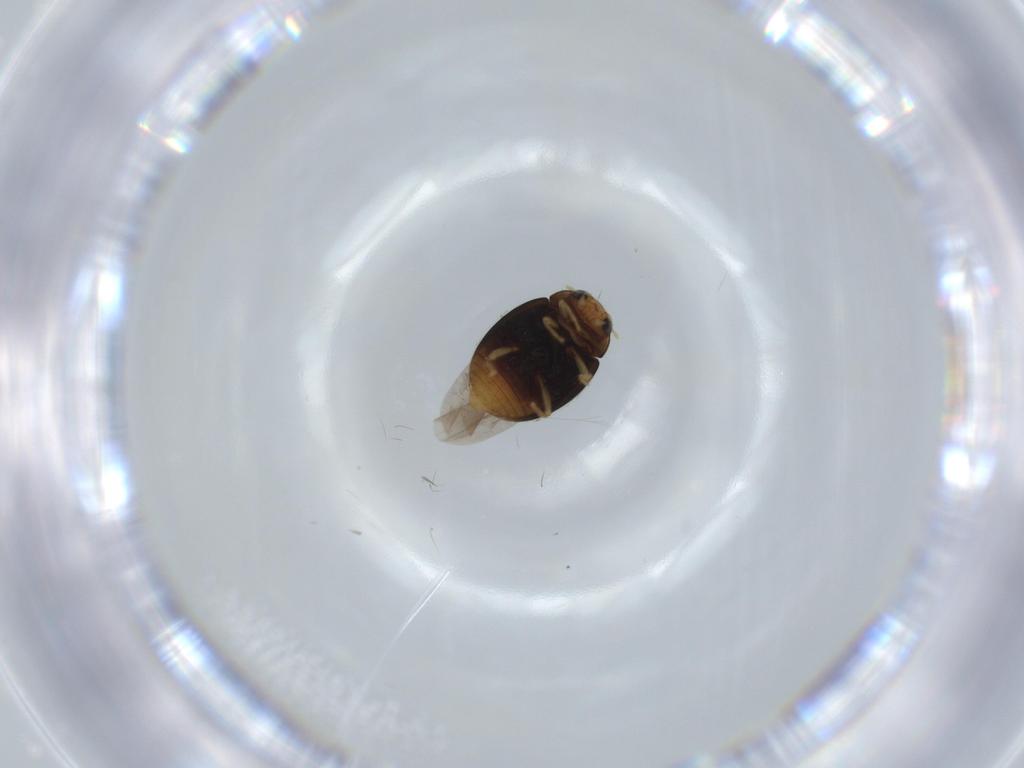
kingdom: Animalia
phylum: Arthropoda
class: Insecta
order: Coleoptera
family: Coccinellidae
